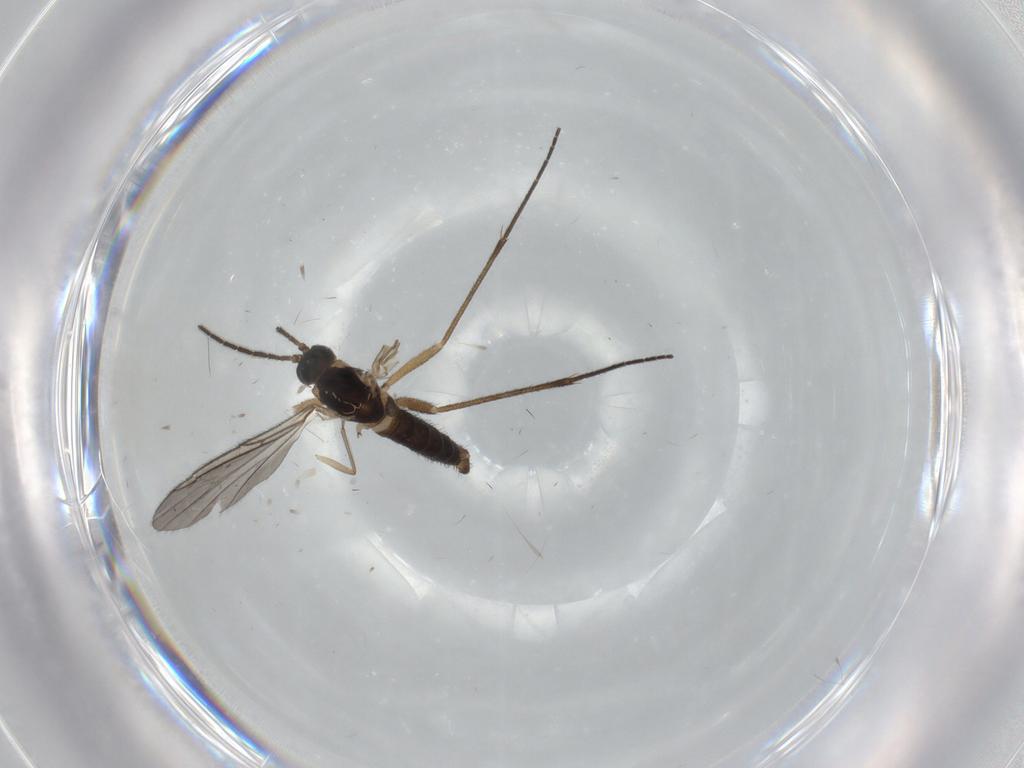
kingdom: Animalia
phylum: Arthropoda
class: Insecta
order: Diptera
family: Sciaridae
